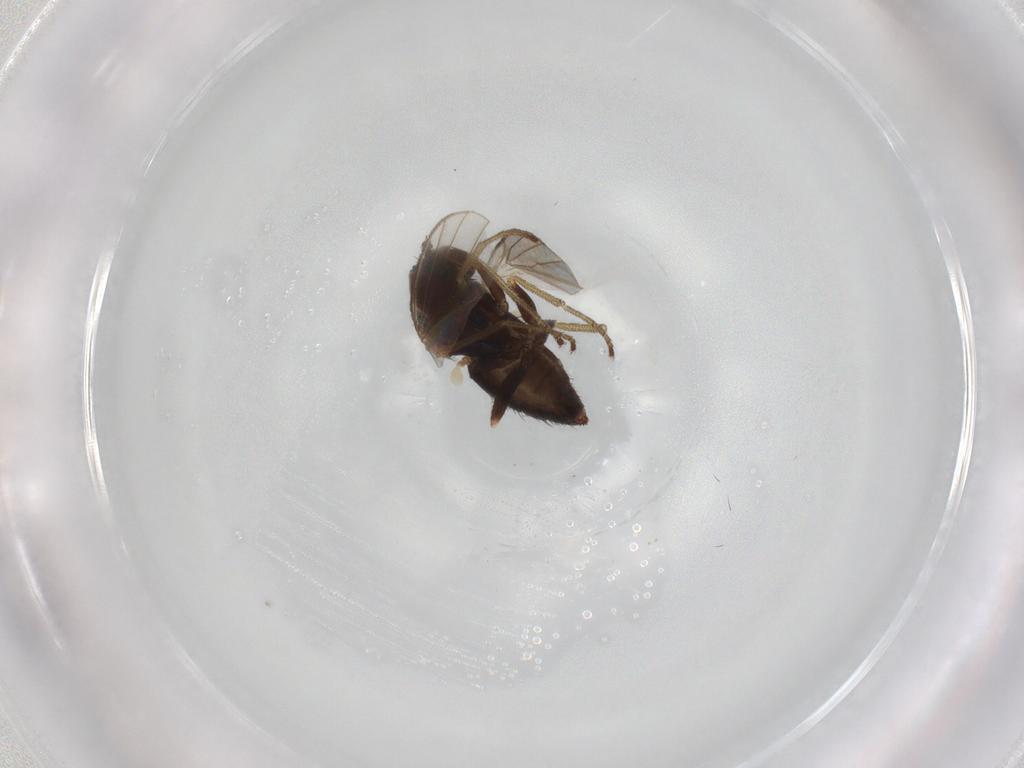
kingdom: Animalia
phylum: Arthropoda
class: Insecta
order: Diptera
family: Dolichopodidae
